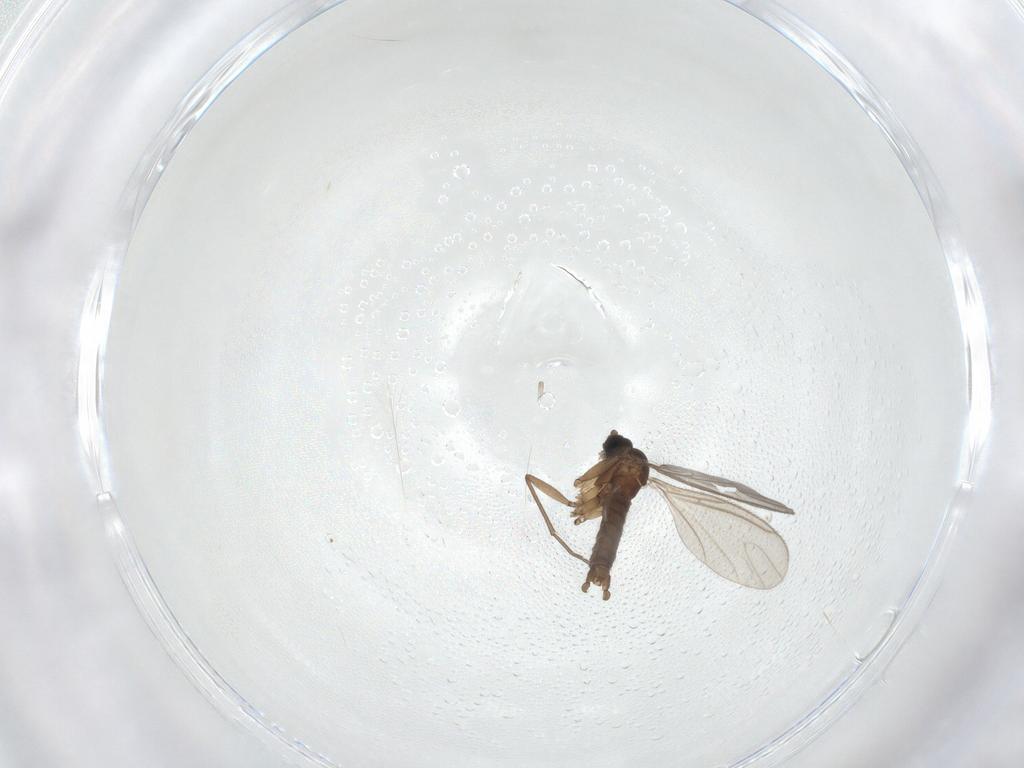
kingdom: Animalia
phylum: Arthropoda
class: Insecta
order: Diptera
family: Sciaridae
